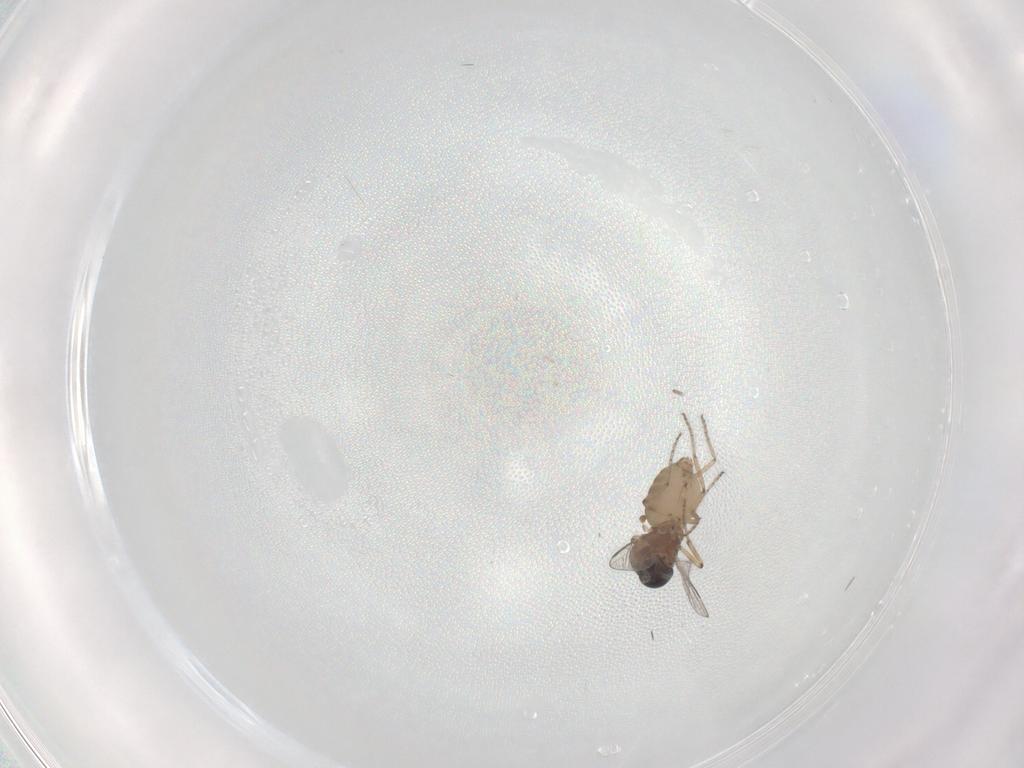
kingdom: Animalia
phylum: Arthropoda
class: Insecta
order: Diptera
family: Ceratopogonidae
